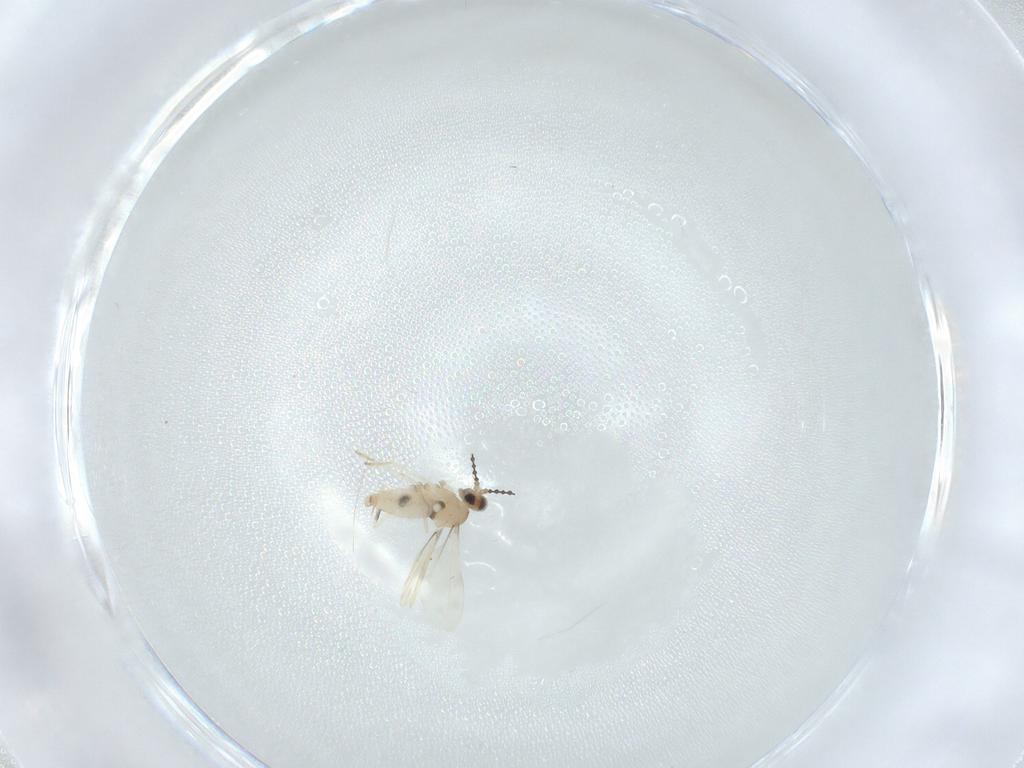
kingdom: Animalia
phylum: Arthropoda
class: Insecta
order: Diptera
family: Cecidomyiidae
